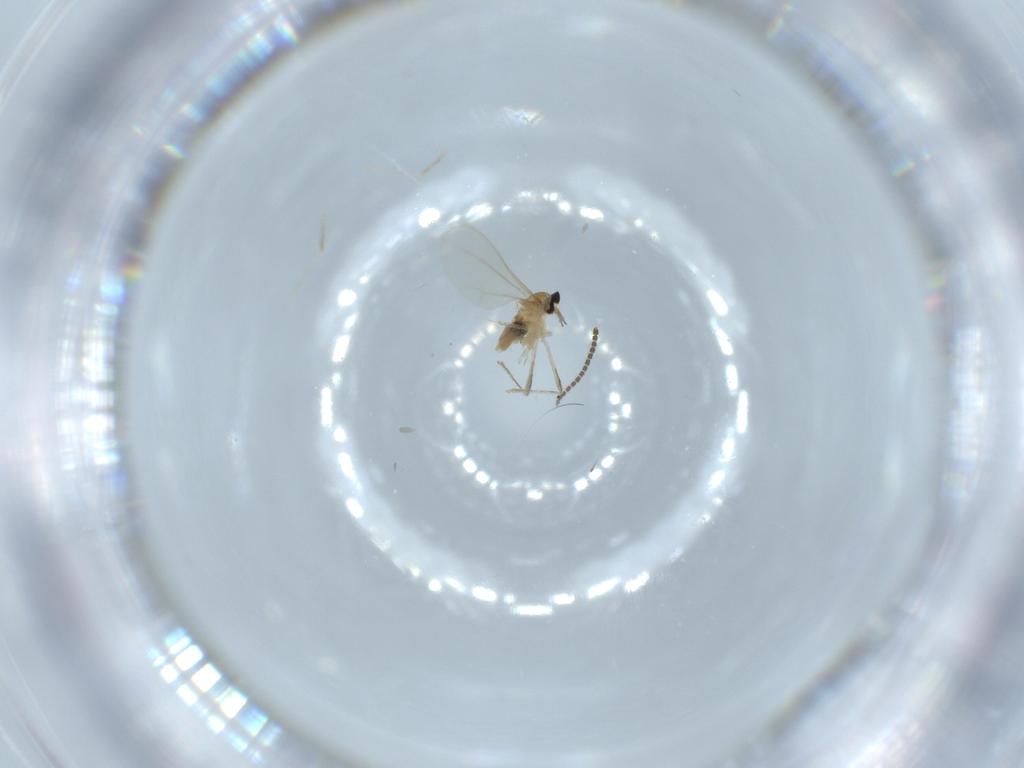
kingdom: Animalia
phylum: Arthropoda
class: Insecta
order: Diptera
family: Cecidomyiidae
